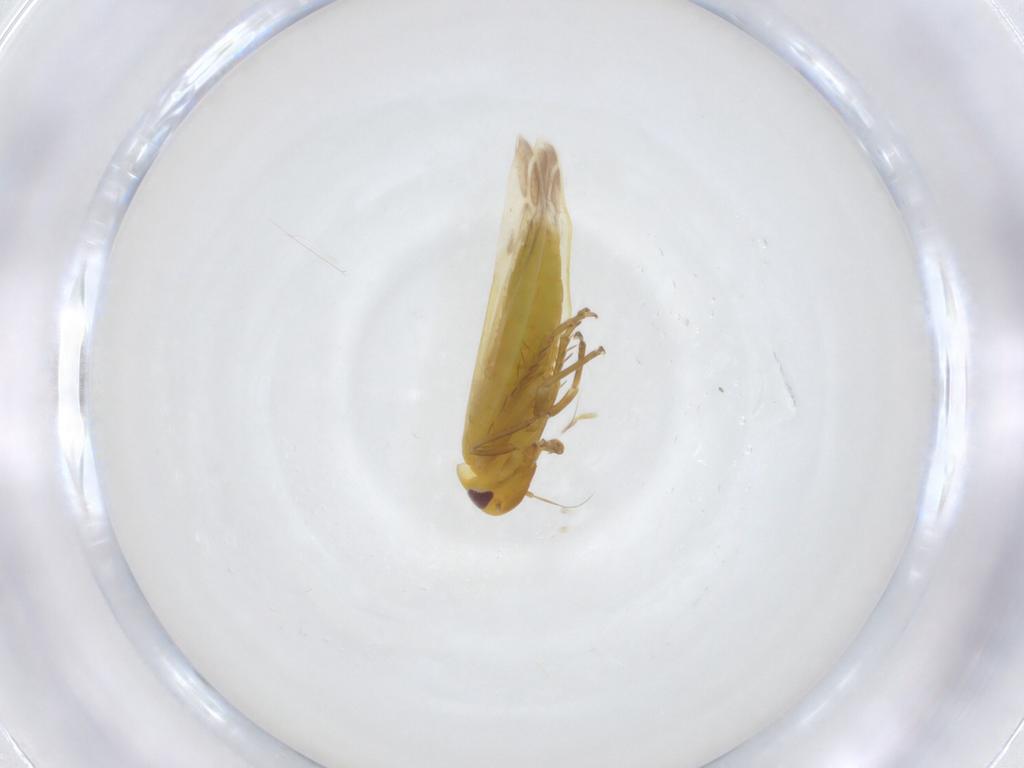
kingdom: Animalia
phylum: Arthropoda
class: Insecta
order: Hemiptera
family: Cicadellidae
